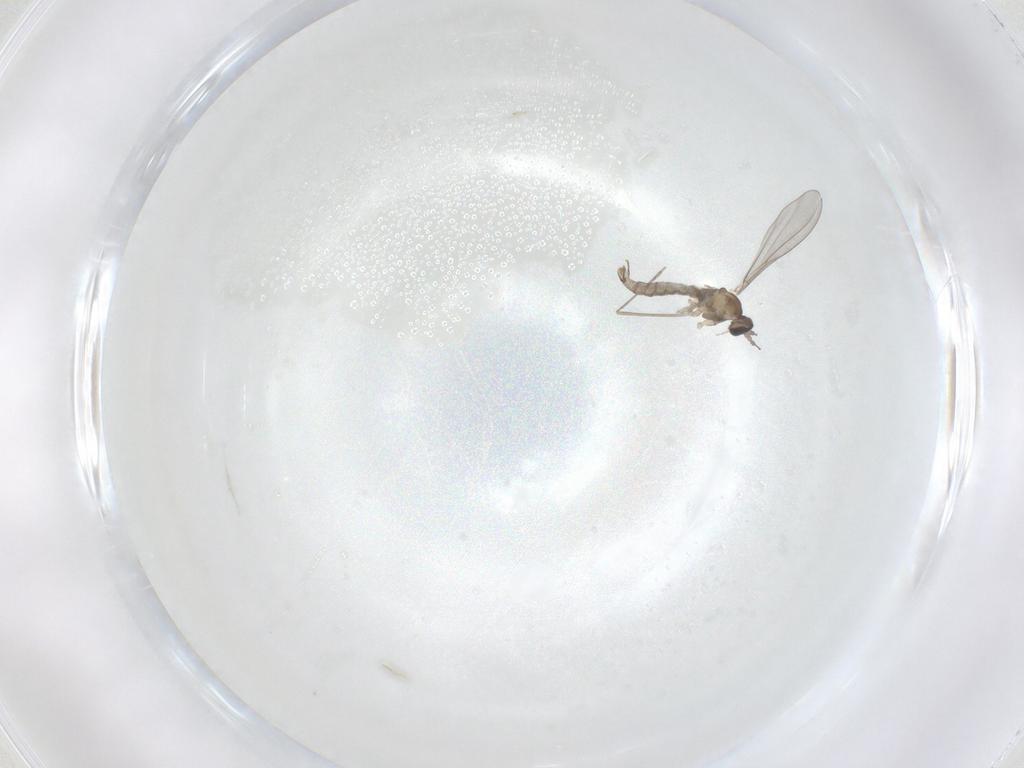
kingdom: Animalia
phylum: Arthropoda
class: Insecta
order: Diptera
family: Cecidomyiidae
